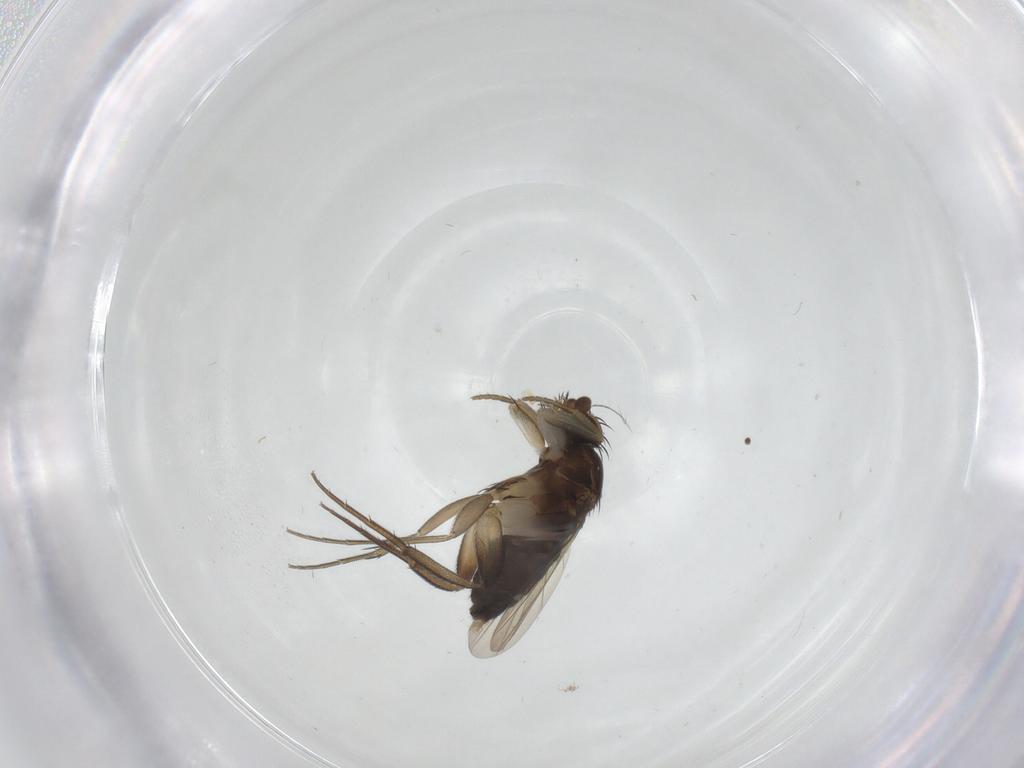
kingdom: Animalia
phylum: Arthropoda
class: Insecta
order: Diptera
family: Phoridae
